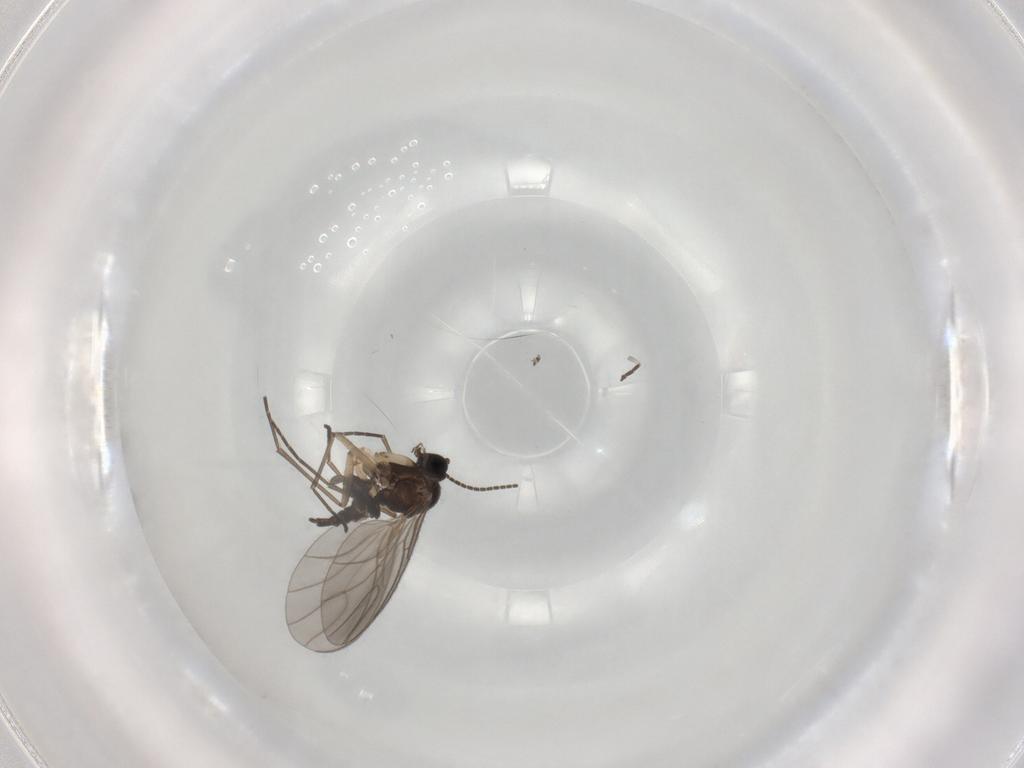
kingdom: Animalia
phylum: Arthropoda
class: Insecta
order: Diptera
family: Sciaridae
